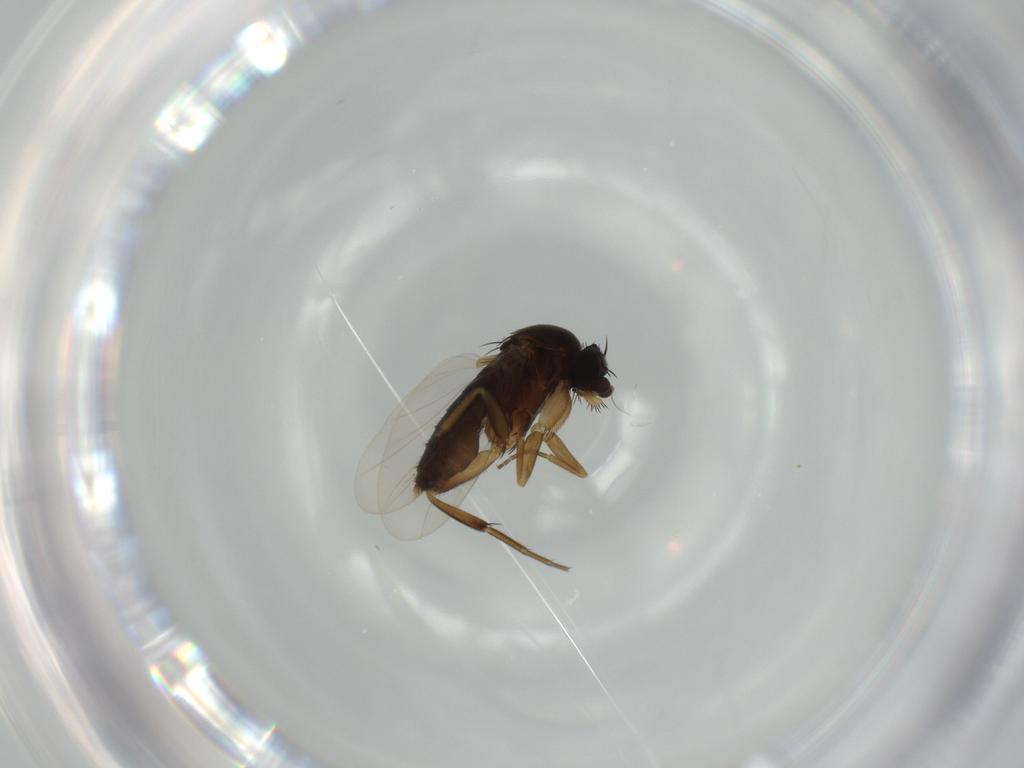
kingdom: Animalia
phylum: Arthropoda
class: Insecta
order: Diptera
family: Phoridae
